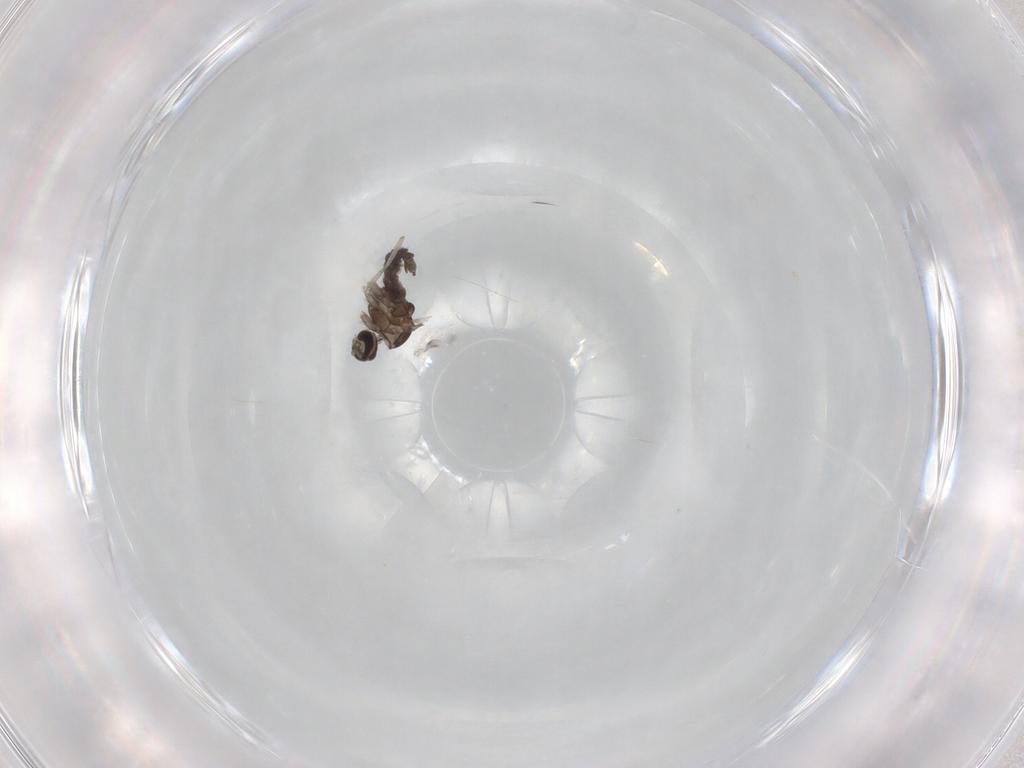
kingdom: Animalia
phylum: Arthropoda
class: Insecta
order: Diptera
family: Cecidomyiidae
